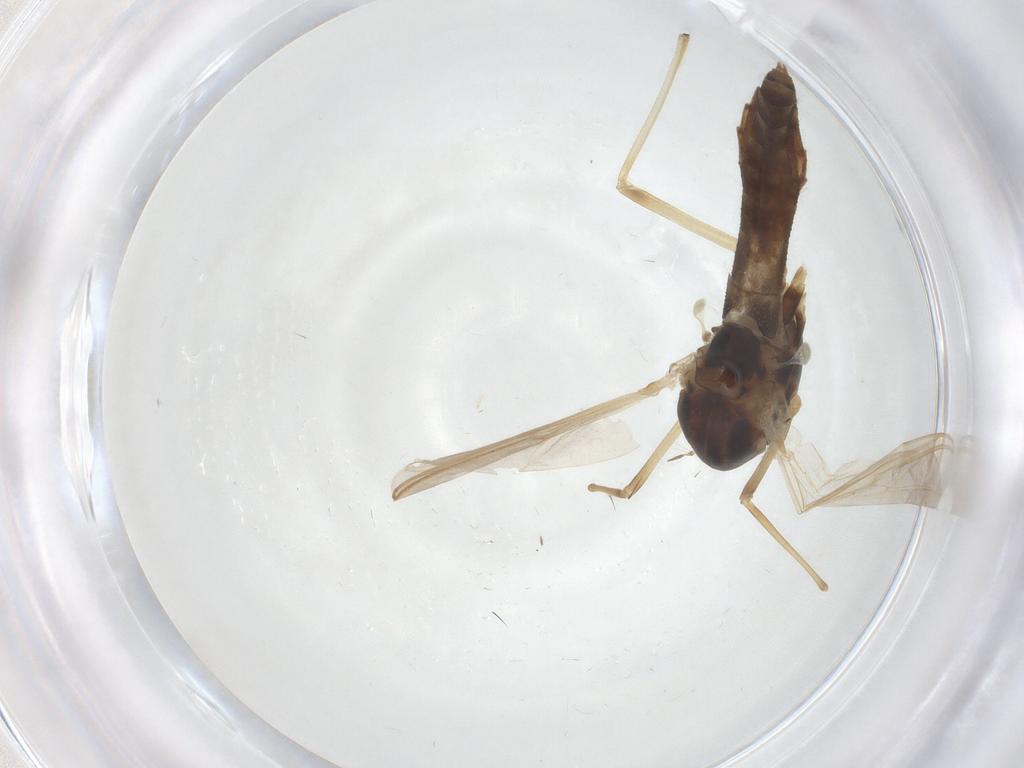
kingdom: Animalia
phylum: Arthropoda
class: Insecta
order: Diptera
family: Chironomidae
